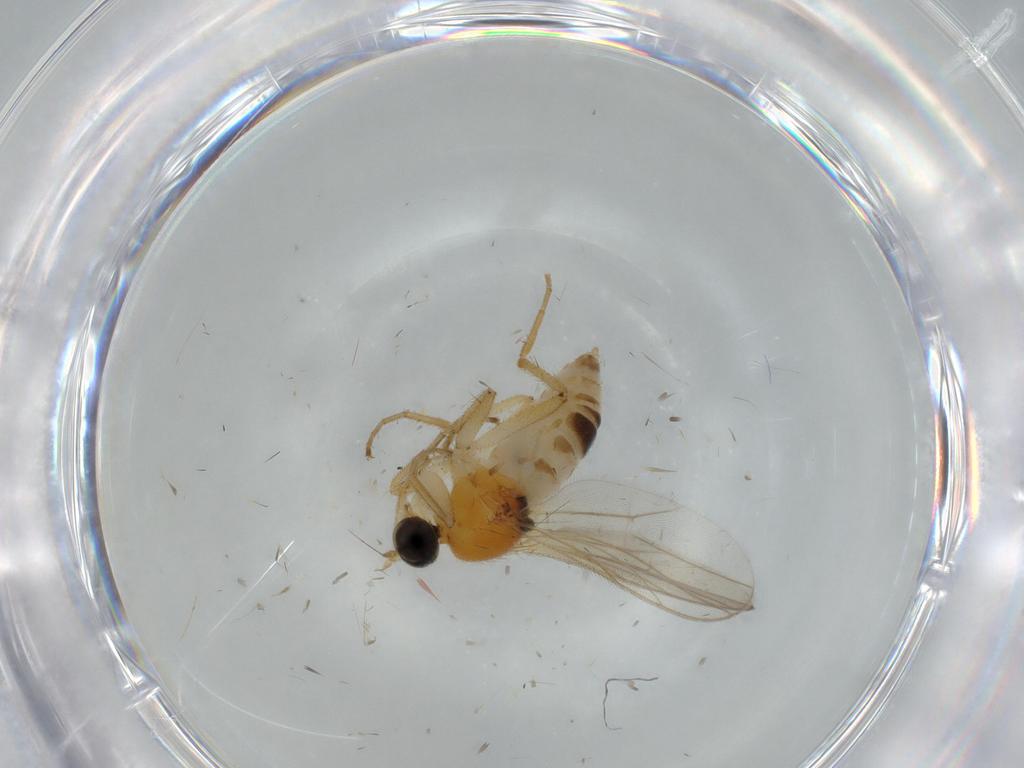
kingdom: Animalia
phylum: Arthropoda
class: Insecta
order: Diptera
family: Hybotidae
